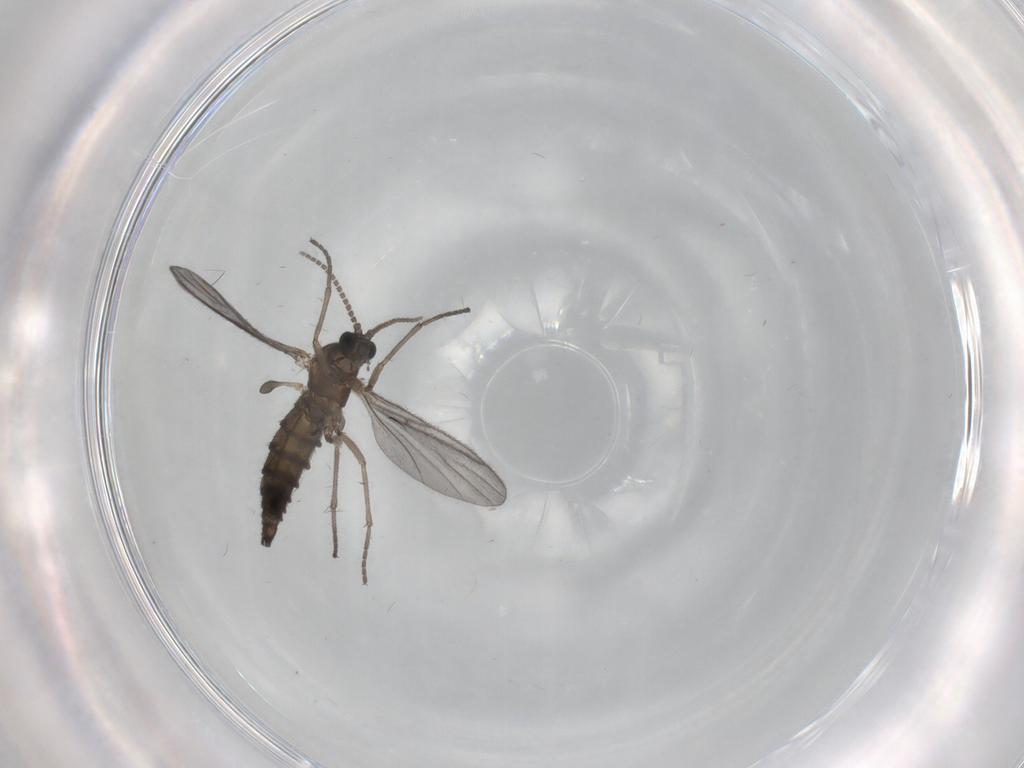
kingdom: Animalia
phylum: Arthropoda
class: Insecta
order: Diptera
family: Sciaridae
